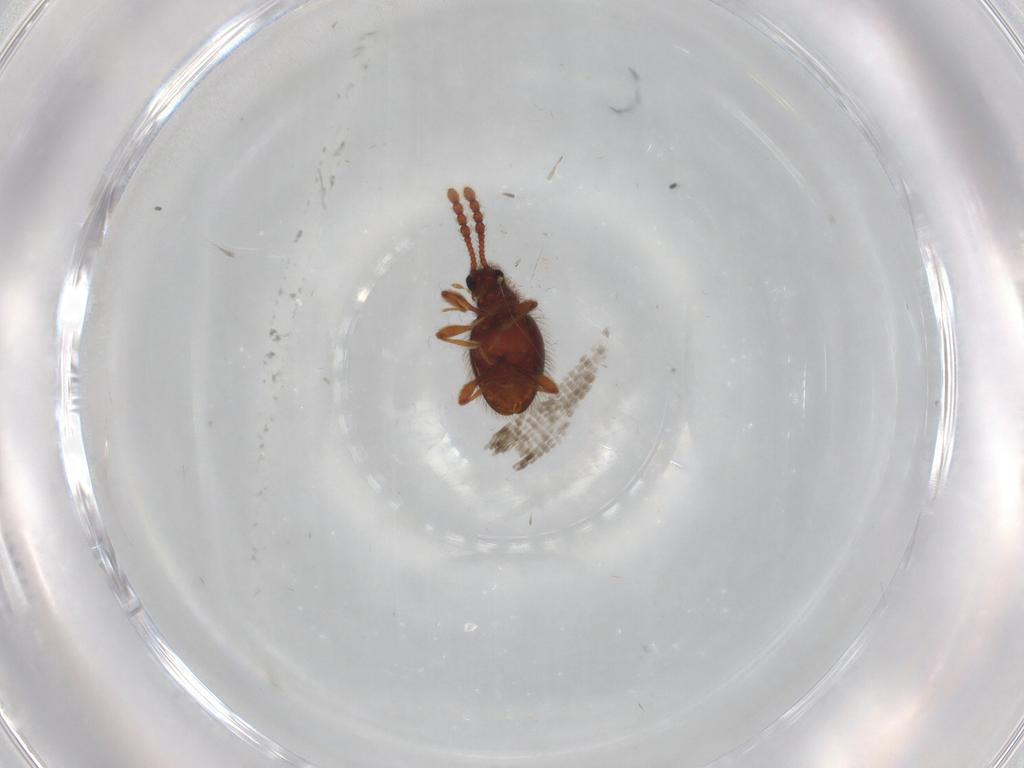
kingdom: Animalia
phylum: Arthropoda
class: Insecta
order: Coleoptera
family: Staphylinidae
